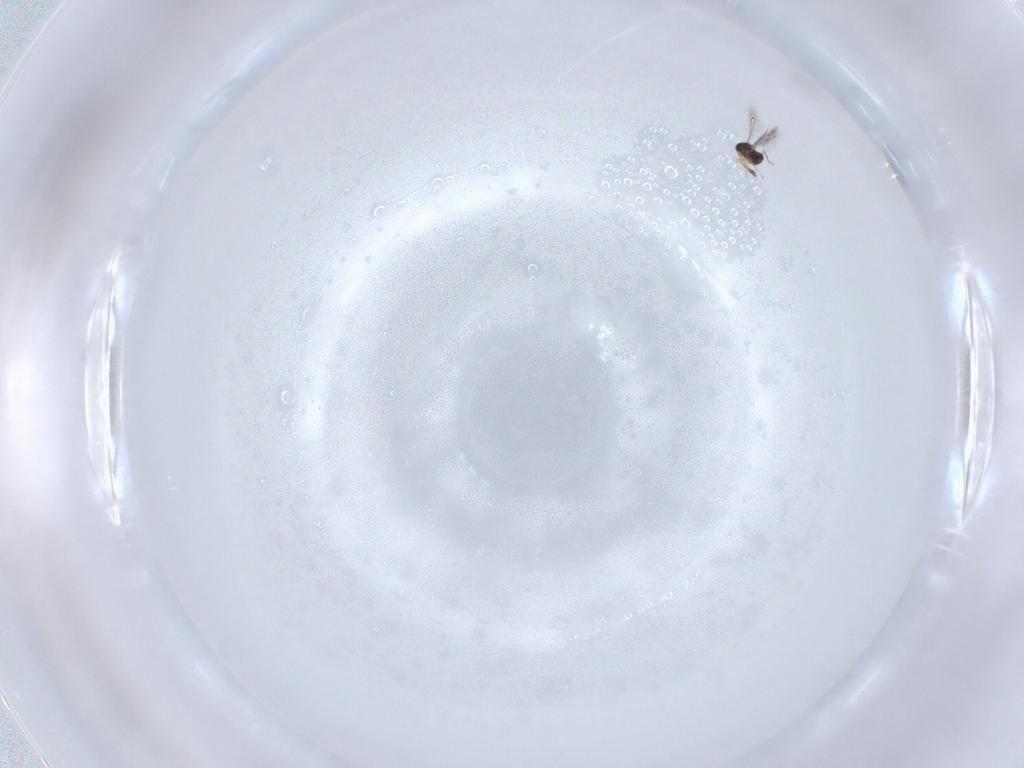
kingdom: Animalia
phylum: Arthropoda
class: Insecta
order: Hymenoptera
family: Mymaridae
